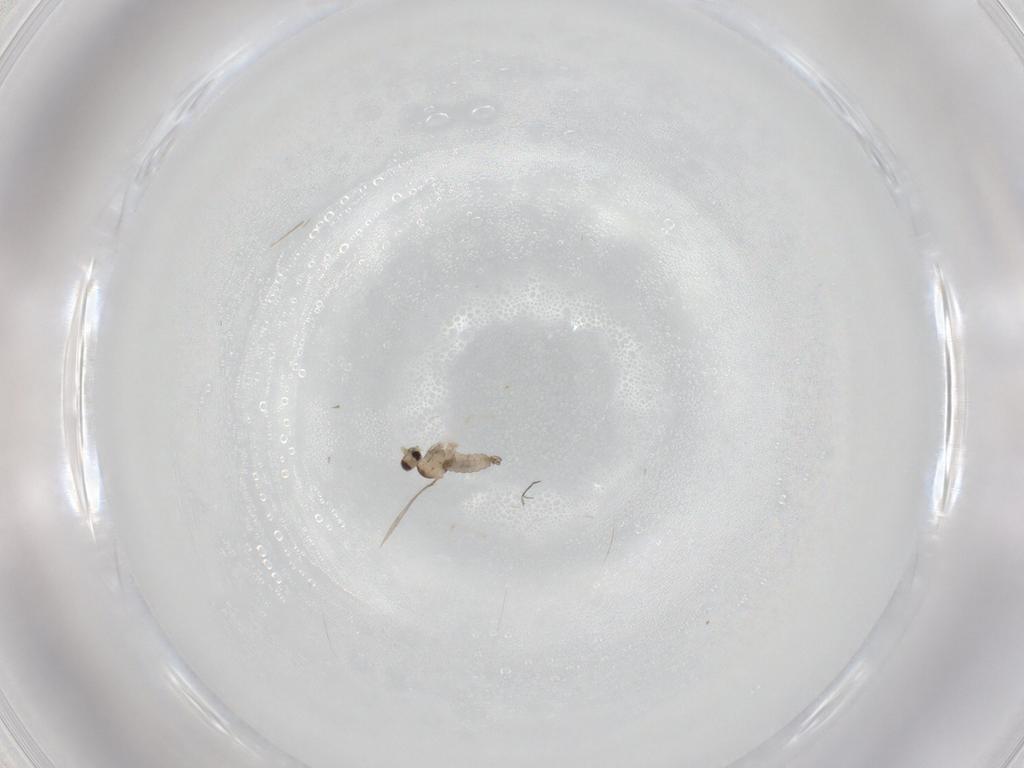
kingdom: Animalia
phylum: Arthropoda
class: Insecta
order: Diptera
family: Cecidomyiidae
